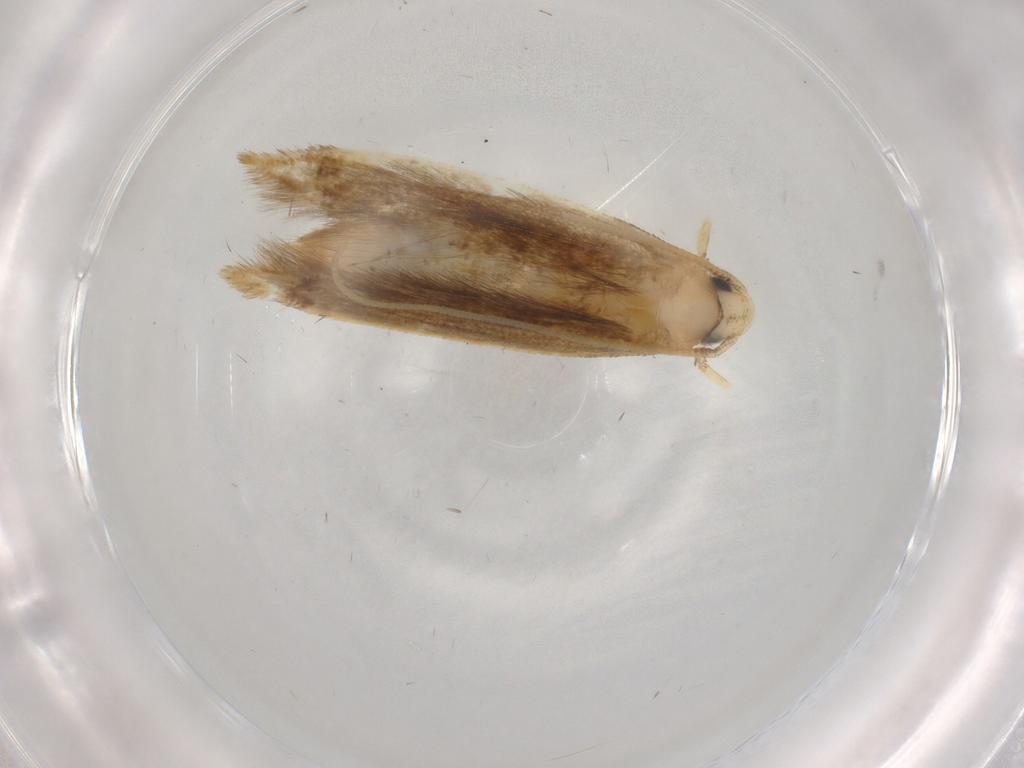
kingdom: Animalia
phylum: Arthropoda
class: Insecta
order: Lepidoptera
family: Tineidae
